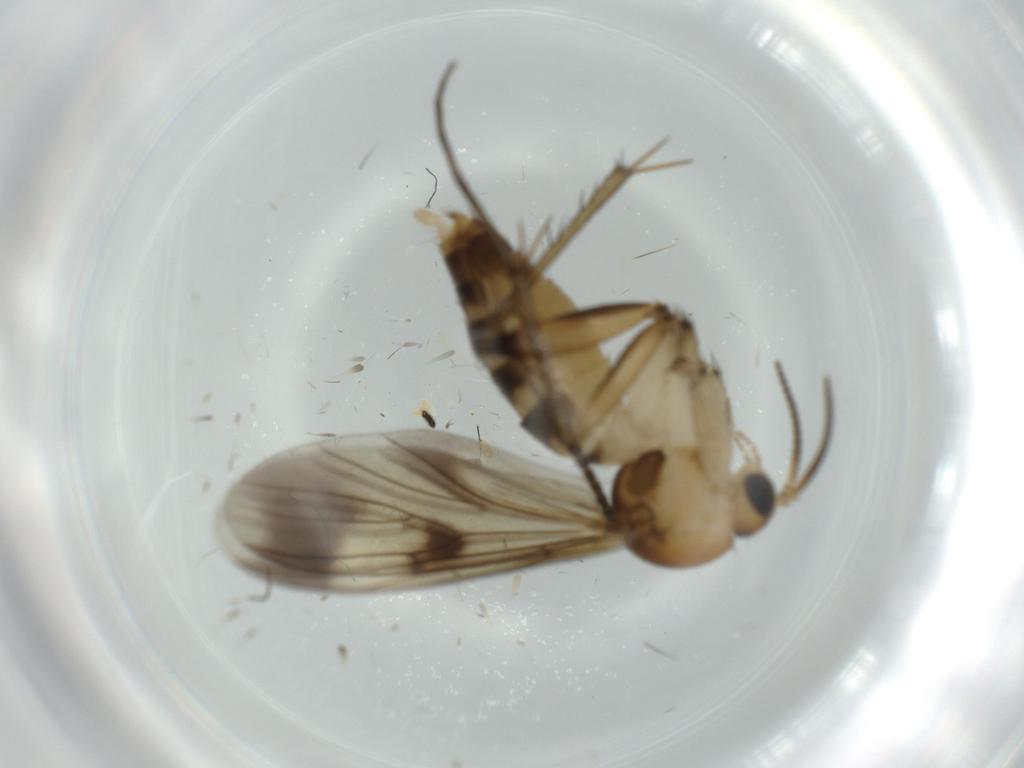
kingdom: Animalia
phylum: Arthropoda
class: Insecta
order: Diptera
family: Mycetophilidae
